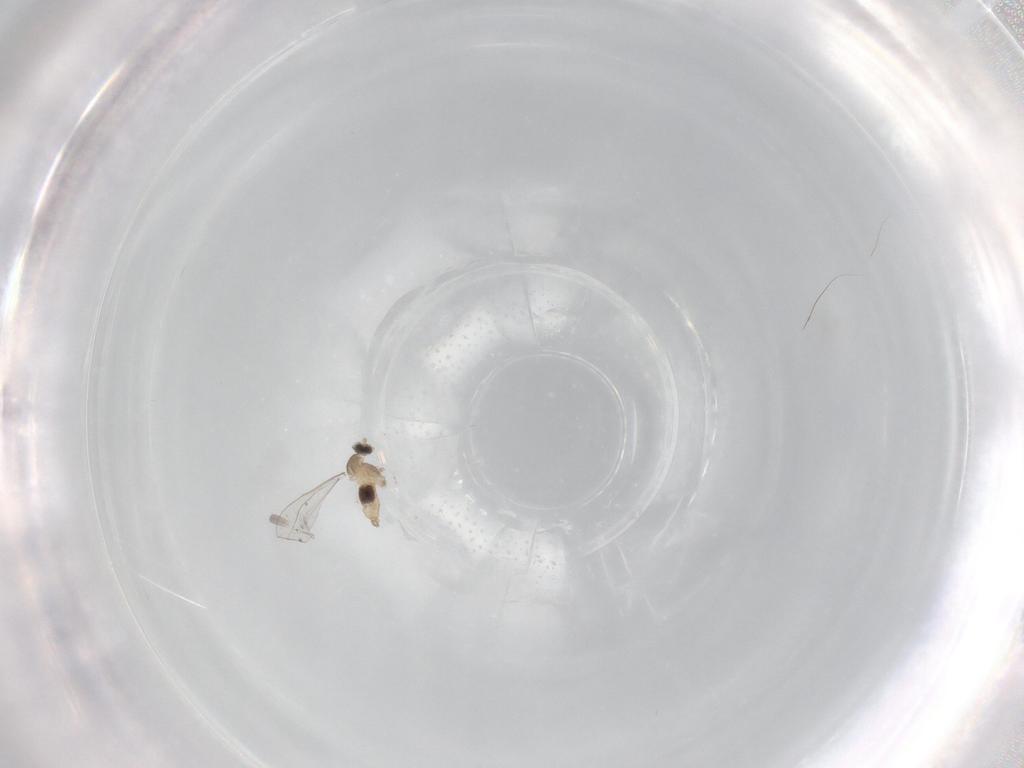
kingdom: Animalia
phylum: Arthropoda
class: Insecta
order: Diptera
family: Cecidomyiidae
